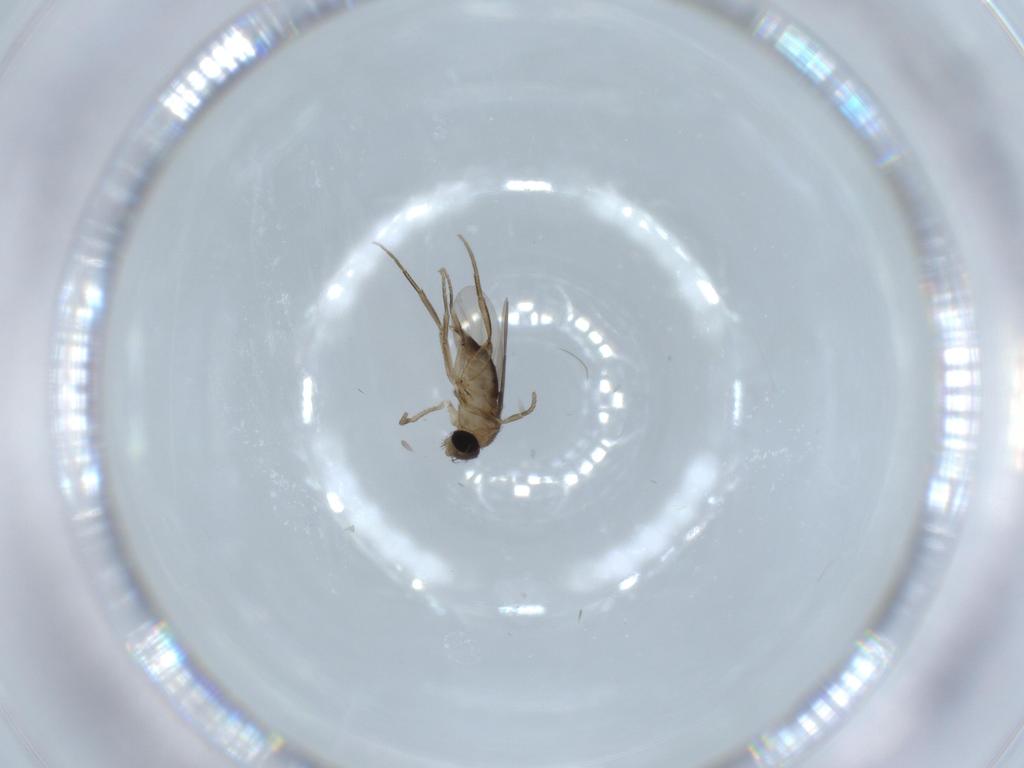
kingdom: Animalia
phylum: Arthropoda
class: Insecta
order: Diptera
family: Phoridae
